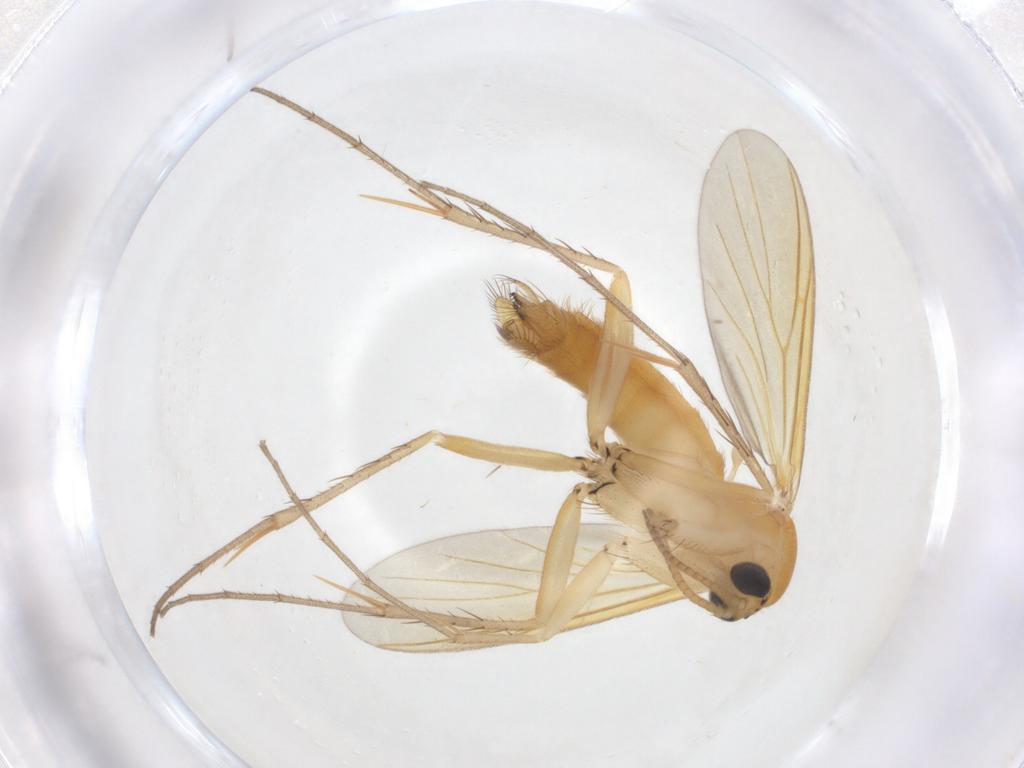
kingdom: Animalia
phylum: Arthropoda
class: Insecta
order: Diptera
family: Mycetophilidae
